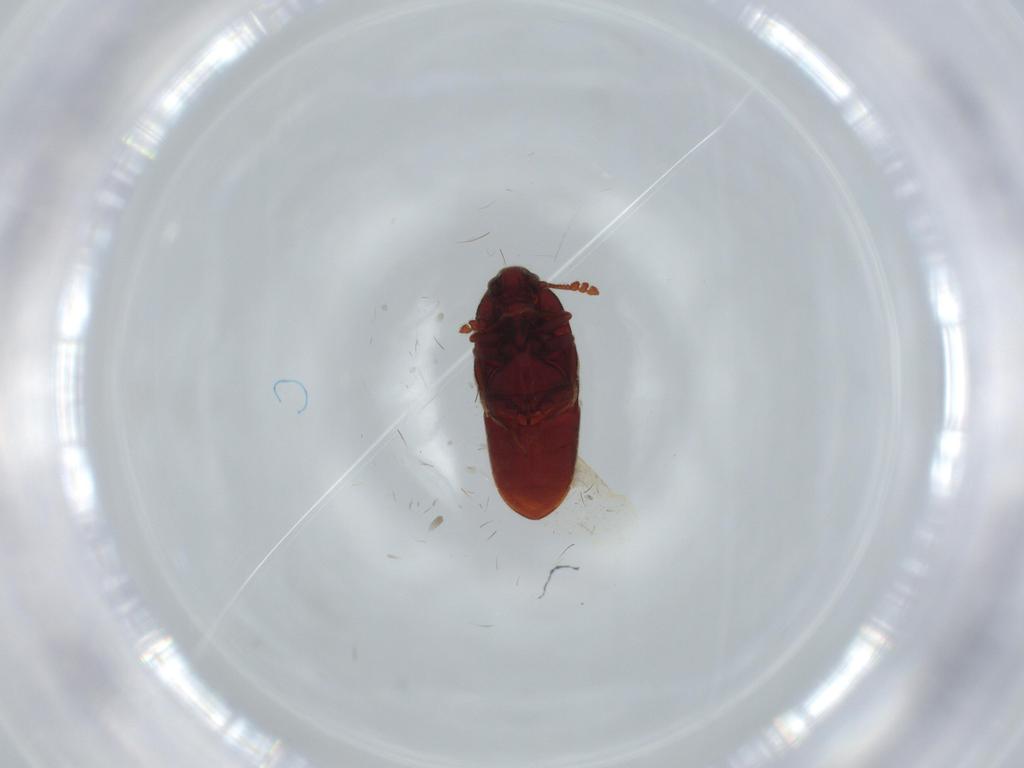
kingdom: Animalia
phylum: Arthropoda
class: Insecta
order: Coleoptera
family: Throscidae
